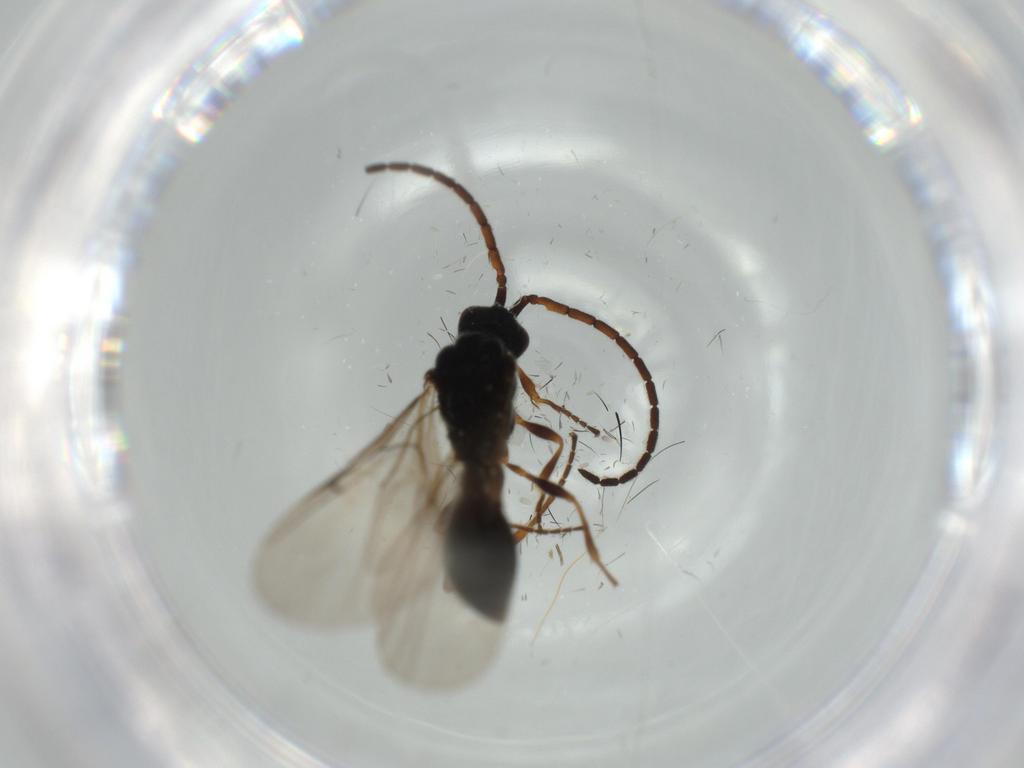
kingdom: Animalia
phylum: Arthropoda
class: Insecta
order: Hymenoptera
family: Braconidae
